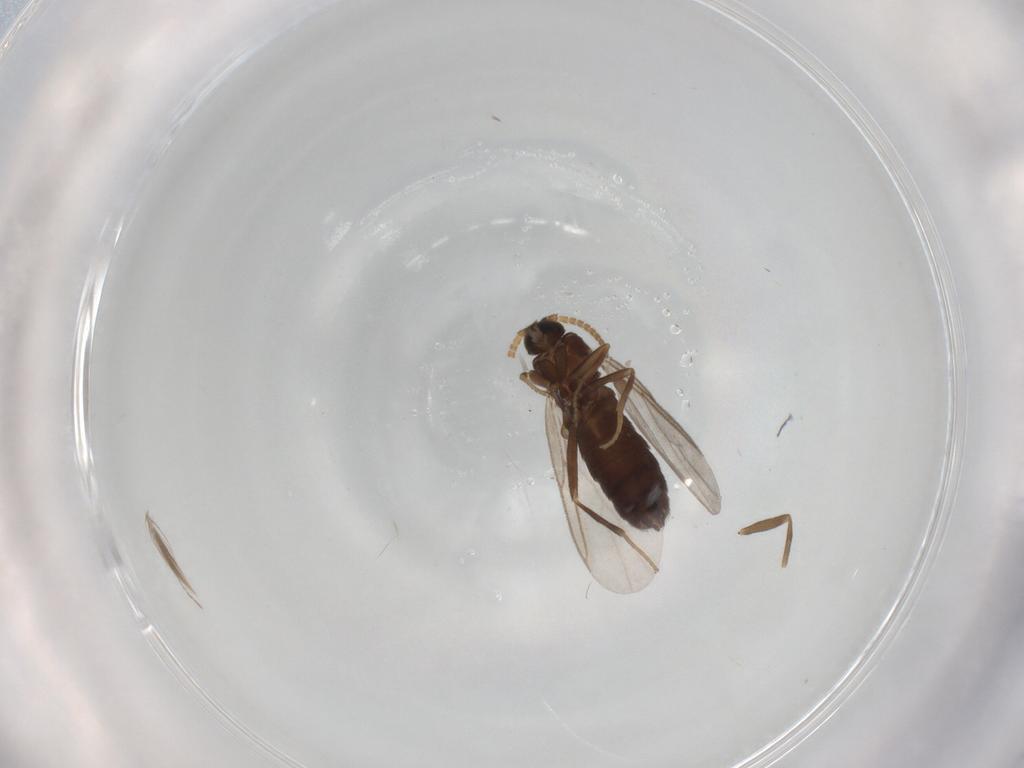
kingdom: Animalia
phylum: Arthropoda
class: Insecta
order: Diptera
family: Scatopsidae
